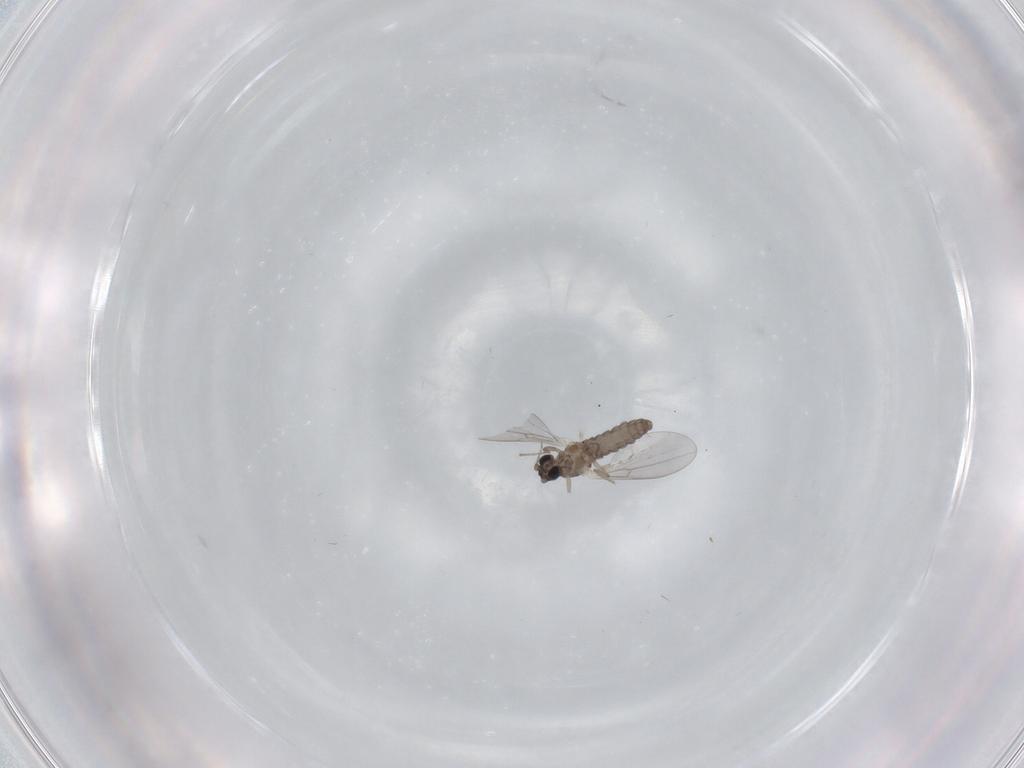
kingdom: Animalia
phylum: Arthropoda
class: Insecta
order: Diptera
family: Cecidomyiidae
